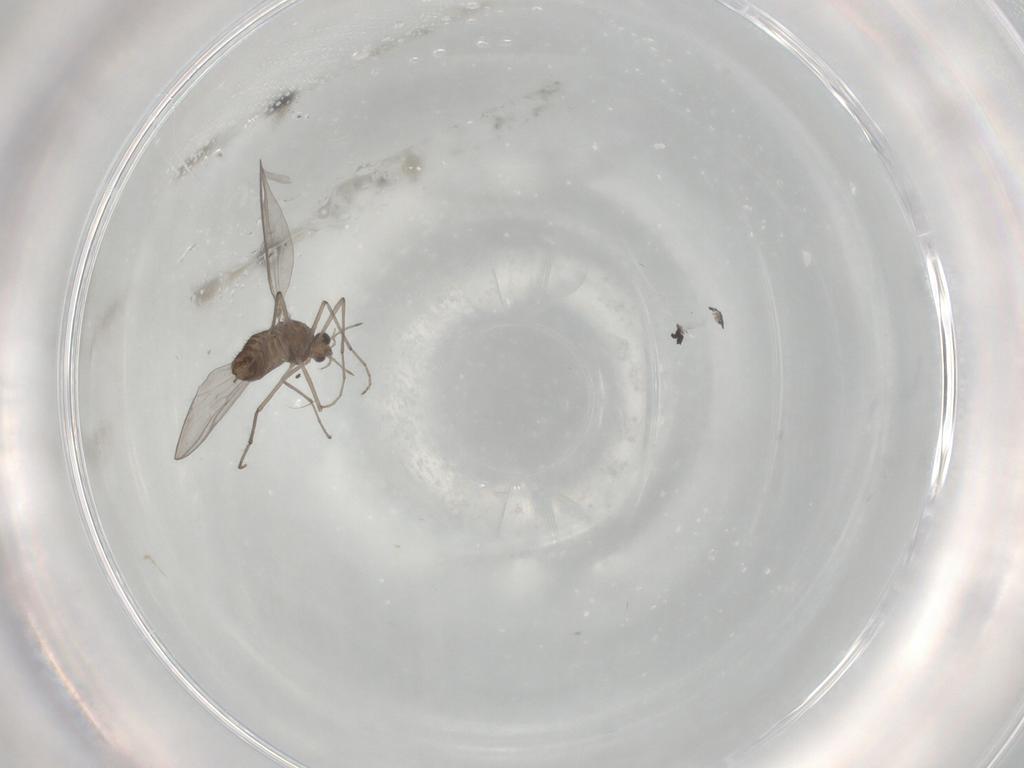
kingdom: Animalia
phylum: Arthropoda
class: Insecta
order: Diptera
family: Chironomidae
